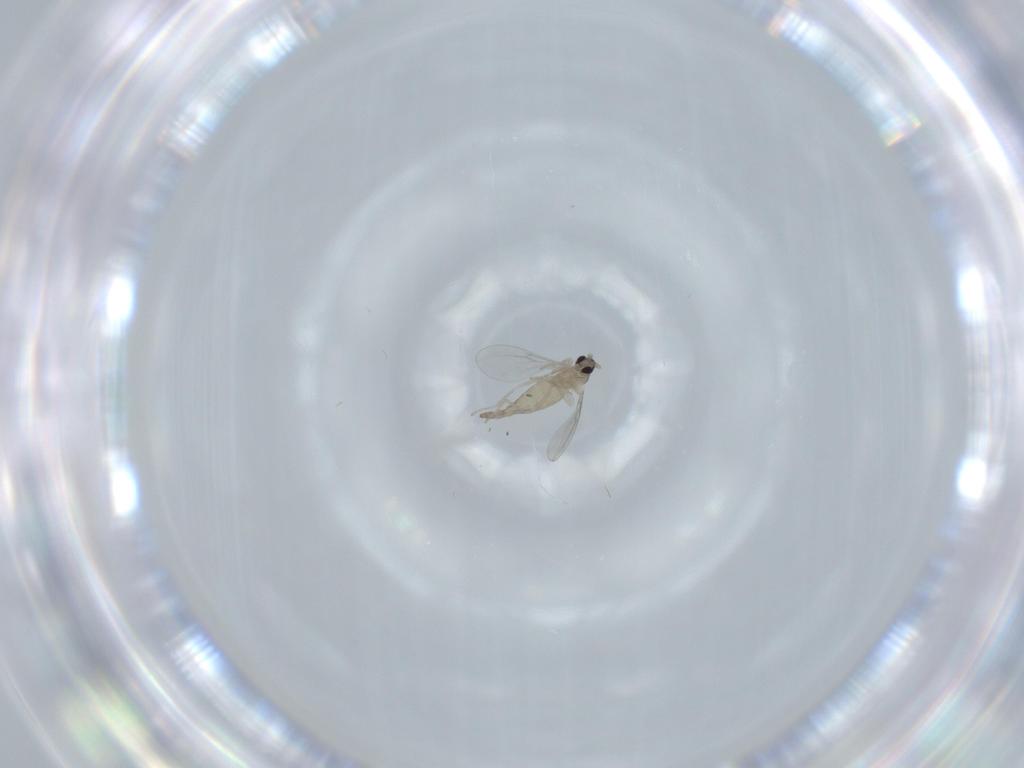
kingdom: Animalia
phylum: Arthropoda
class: Insecta
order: Diptera
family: Cecidomyiidae
